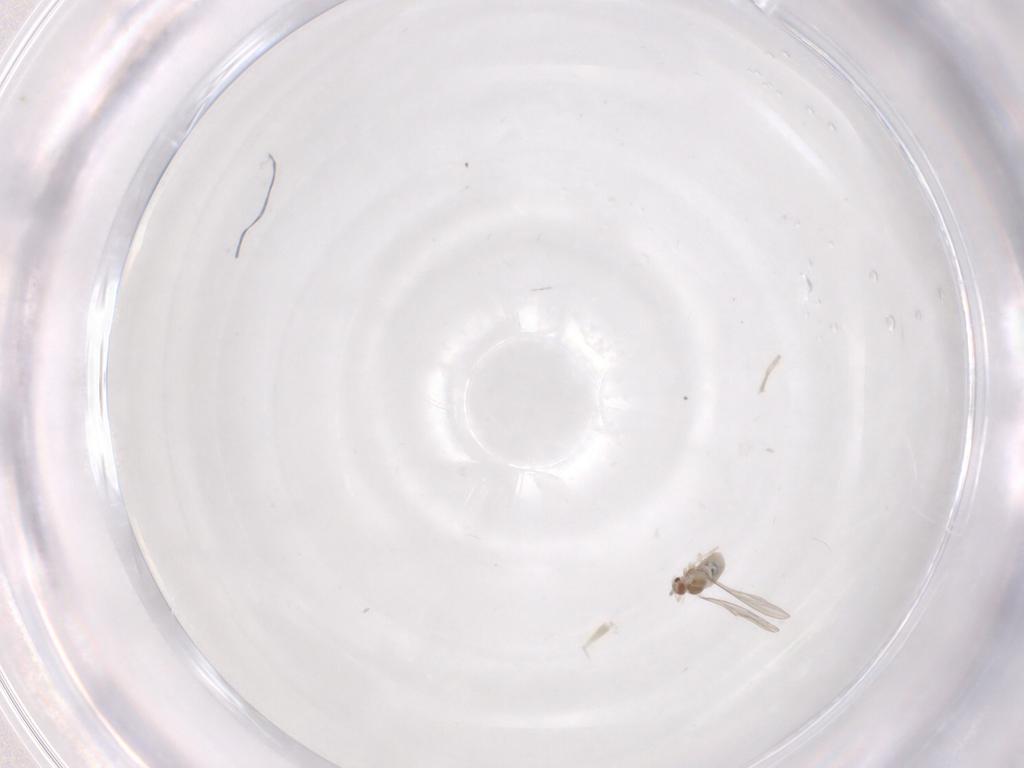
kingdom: Animalia
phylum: Arthropoda
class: Insecta
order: Diptera
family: Cecidomyiidae
